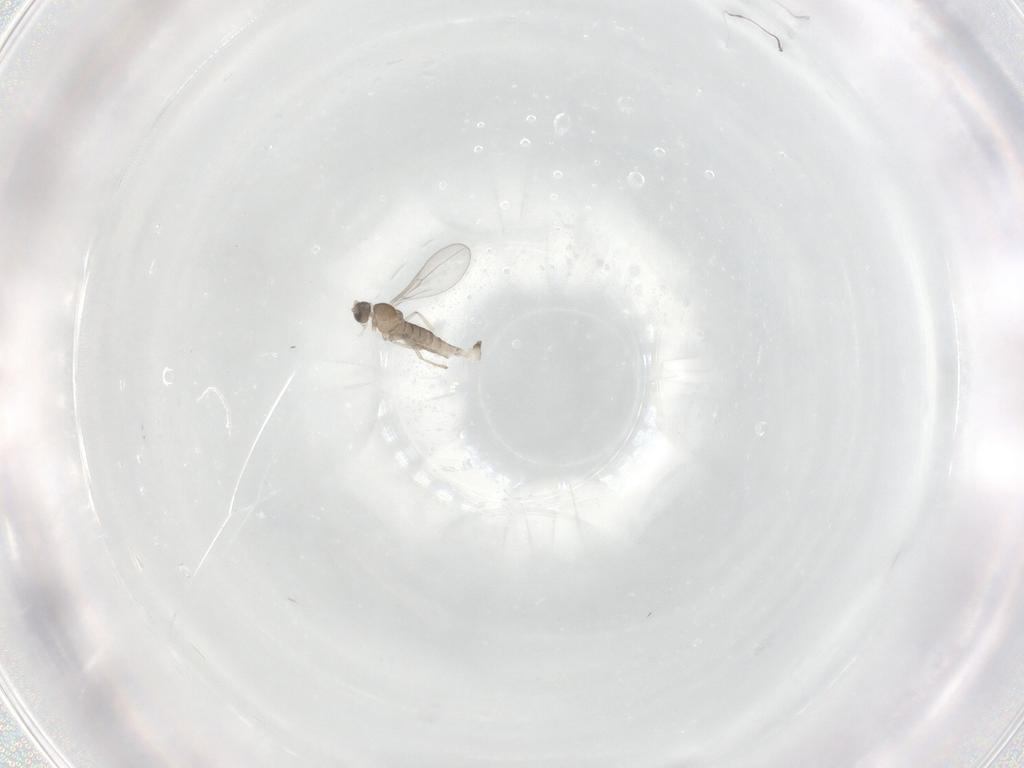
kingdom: Animalia
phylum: Arthropoda
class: Insecta
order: Diptera
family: Cecidomyiidae
